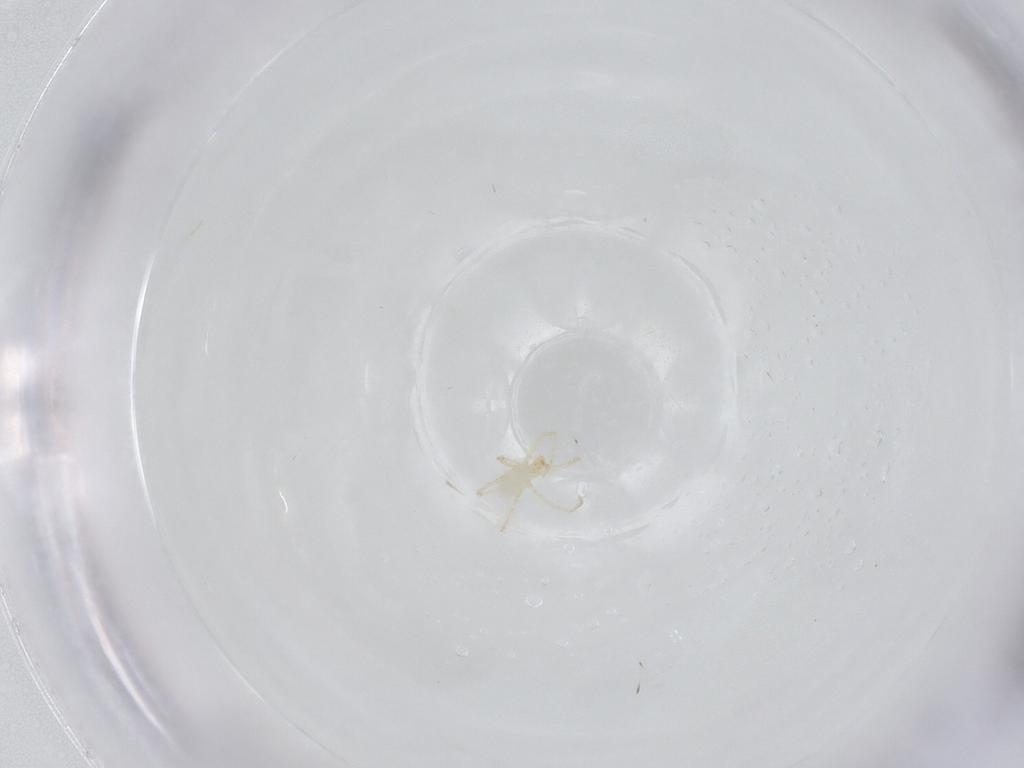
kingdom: Animalia
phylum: Arthropoda
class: Arachnida
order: Trombidiformes
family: Erythraeidae
